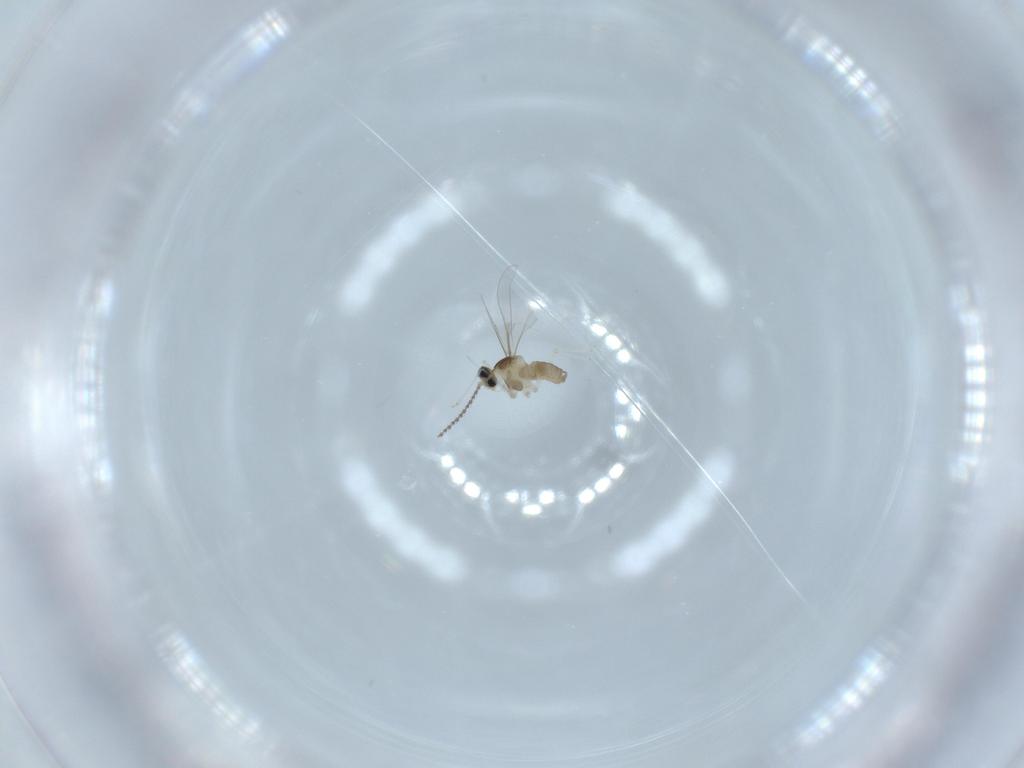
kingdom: Animalia
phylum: Arthropoda
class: Insecta
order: Diptera
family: Cecidomyiidae
